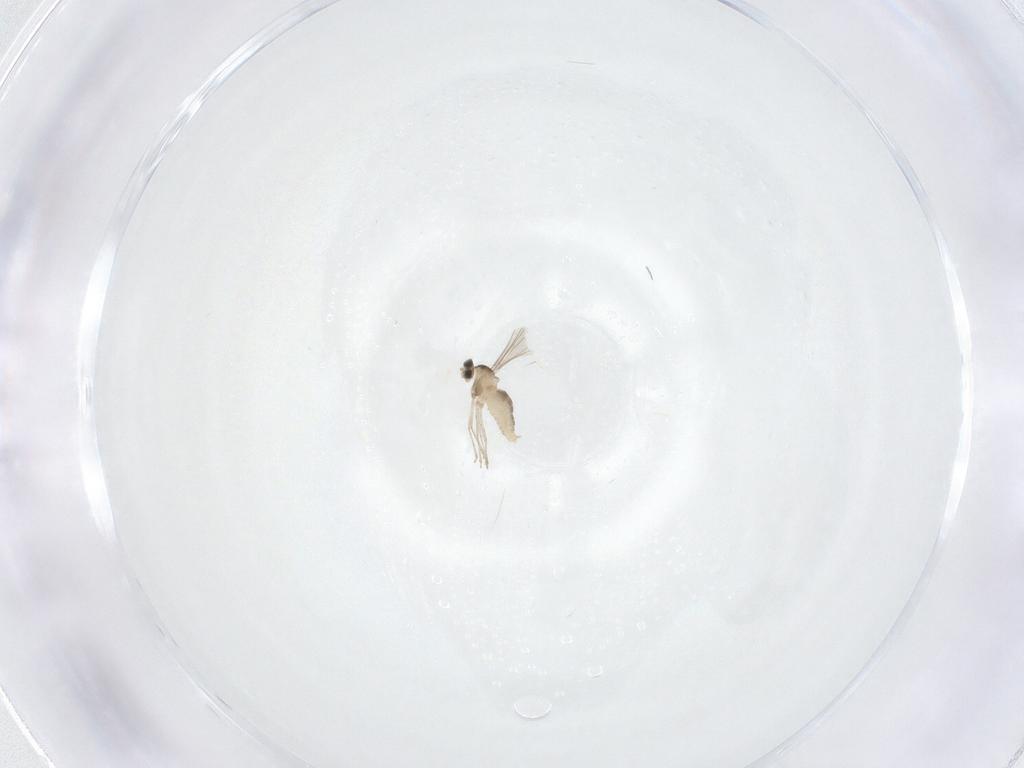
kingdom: Animalia
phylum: Arthropoda
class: Insecta
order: Diptera
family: Cecidomyiidae
